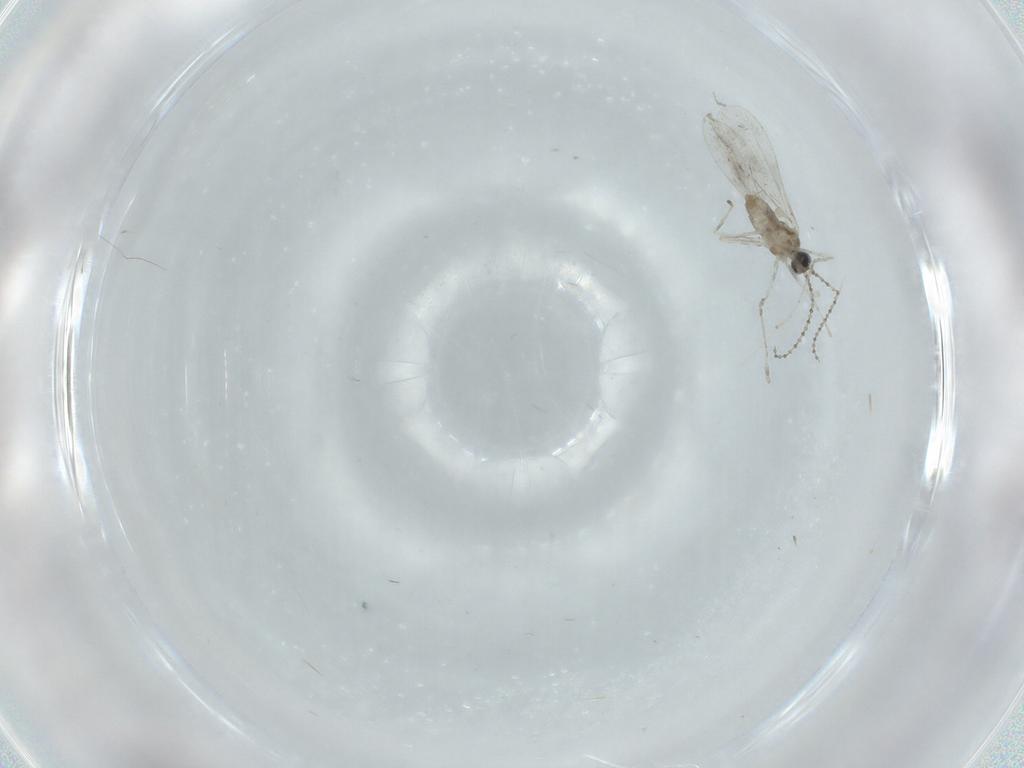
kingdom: Animalia
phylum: Arthropoda
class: Insecta
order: Diptera
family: Cecidomyiidae
